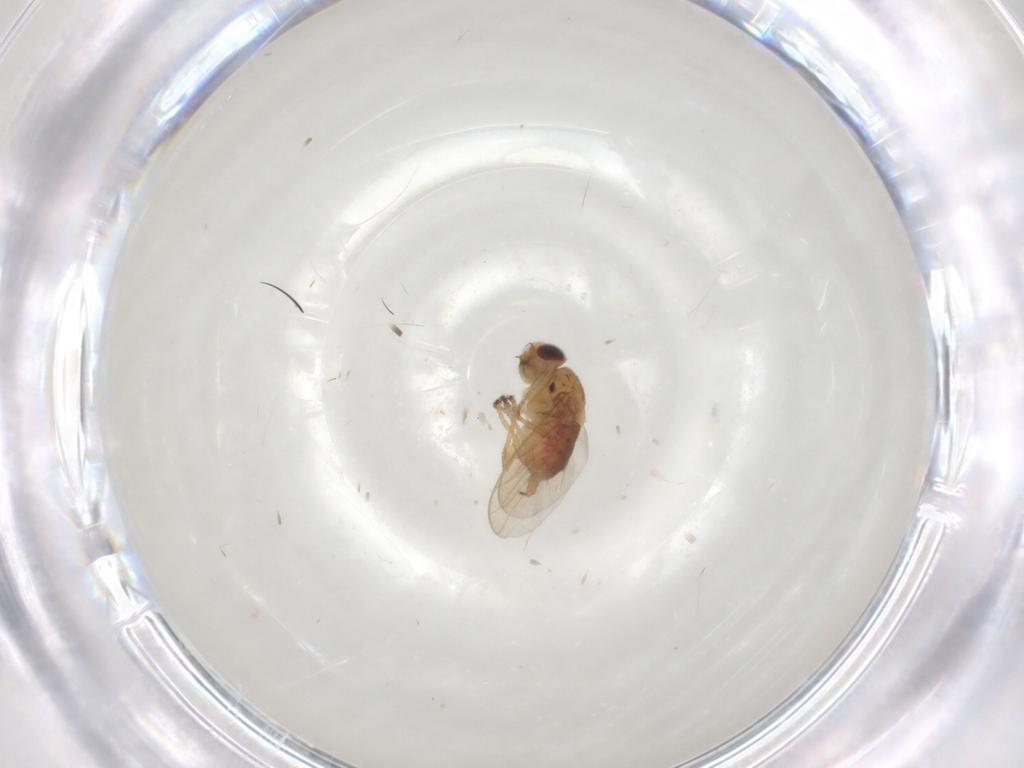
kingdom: Animalia
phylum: Arthropoda
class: Insecta
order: Diptera
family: Chloropidae
